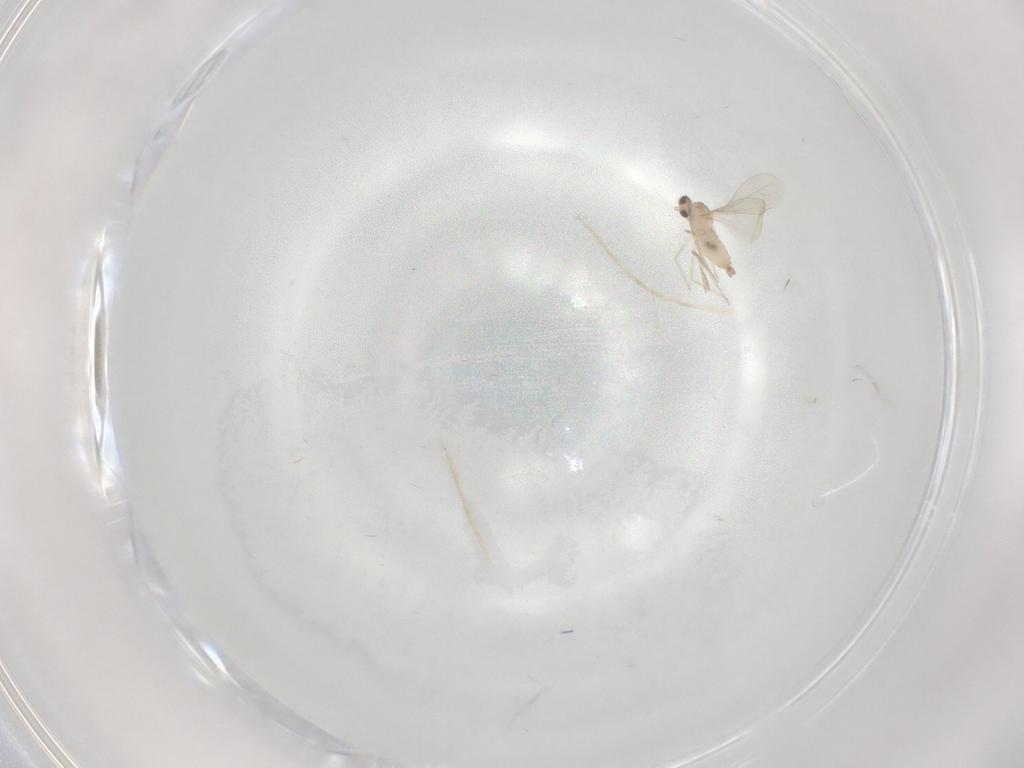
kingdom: Animalia
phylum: Arthropoda
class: Insecta
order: Diptera
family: Cecidomyiidae
